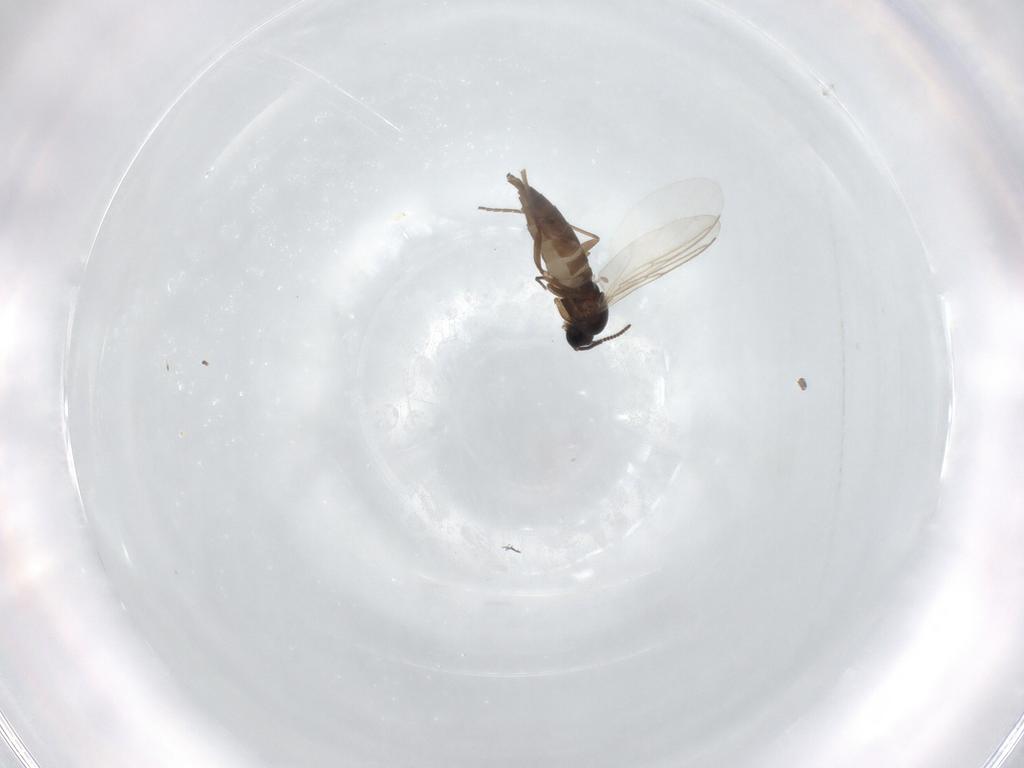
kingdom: Animalia
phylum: Arthropoda
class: Insecta
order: Diptera
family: Sciaridae
